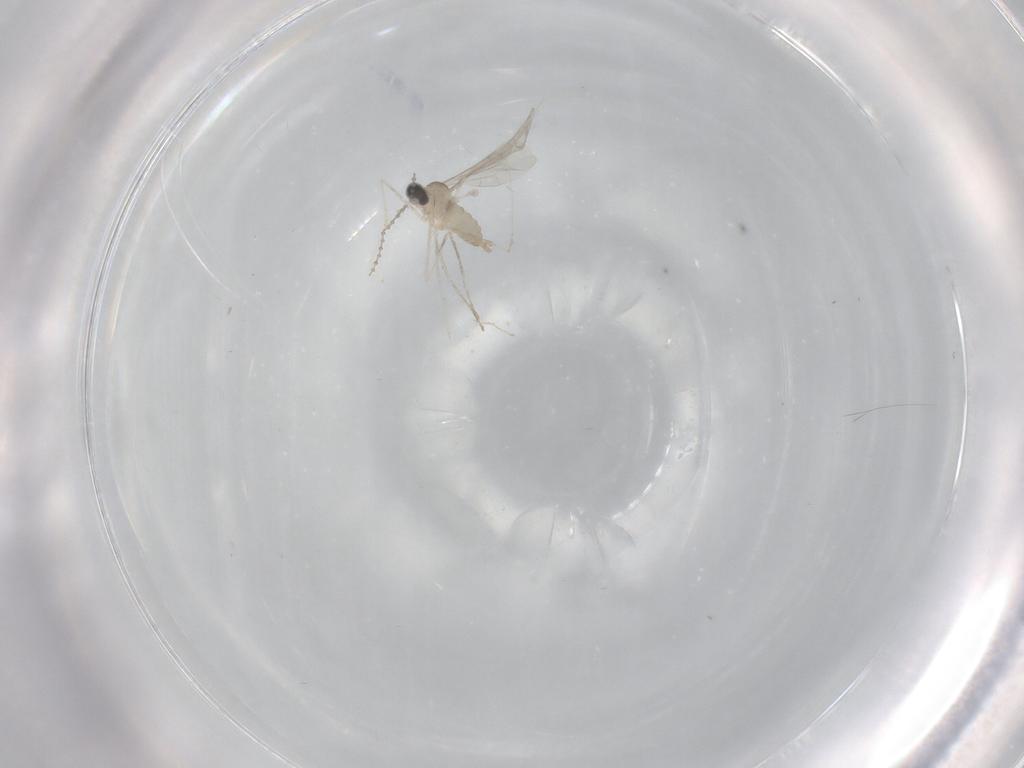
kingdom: Animalia
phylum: Arthropoda
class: Insecta
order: Diptera
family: Cecidomyiidae
